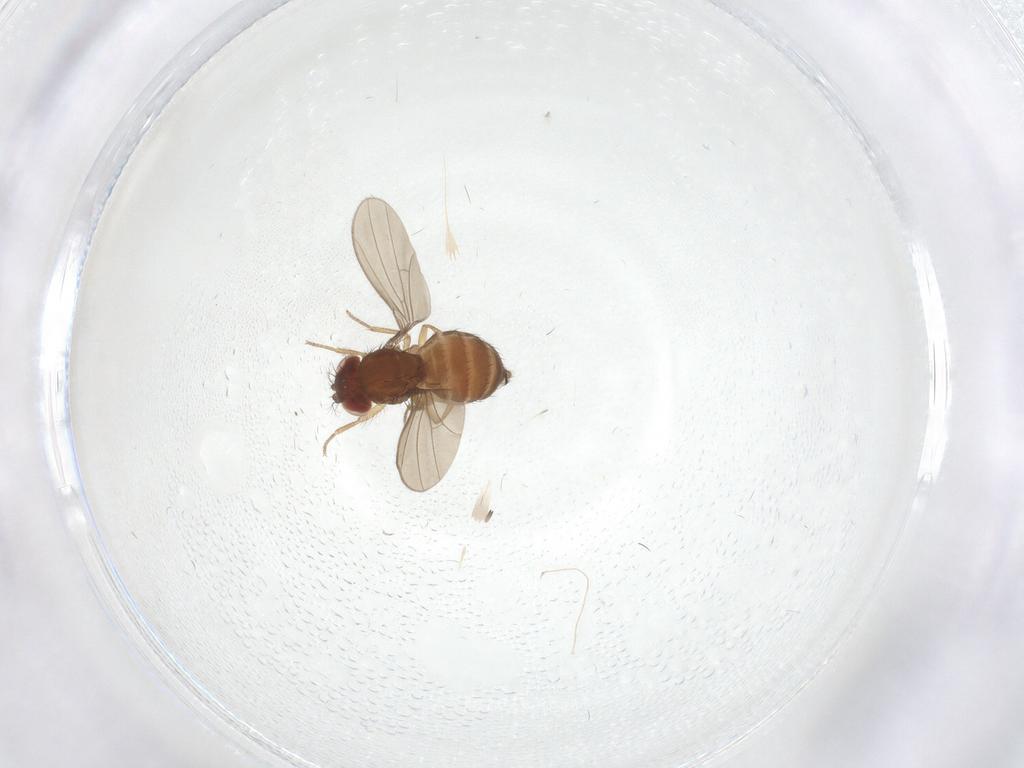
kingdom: Animalia
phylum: Arthropoda
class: Insecta
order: Diptera
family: Drosophilidae
